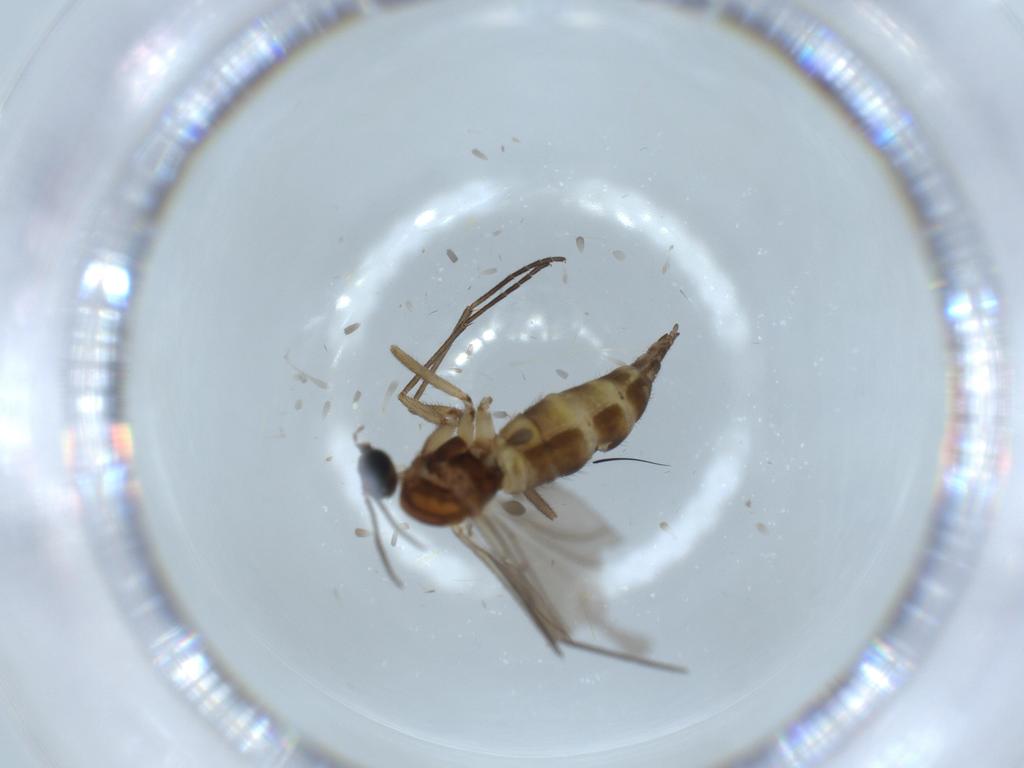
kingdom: Animalia
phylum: Arthropoda
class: Insecta
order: Diptera
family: Sciaridae
